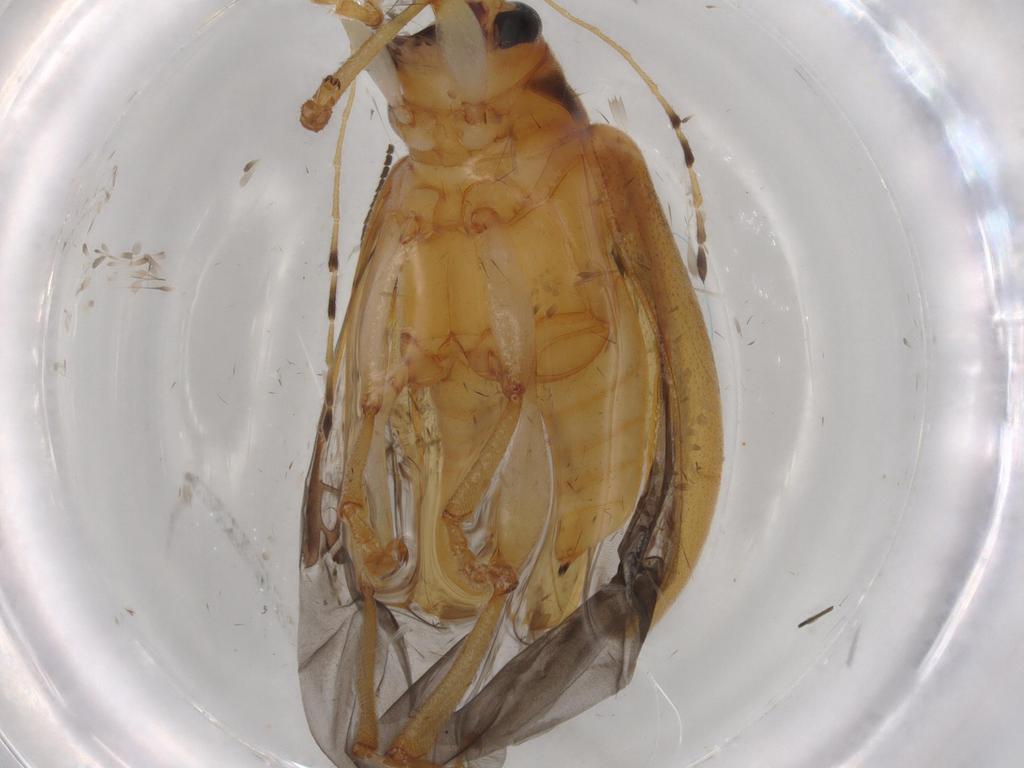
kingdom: Animalia
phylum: Arthropoda
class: Insecta
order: Coleoptera
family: Chrysomelidae
